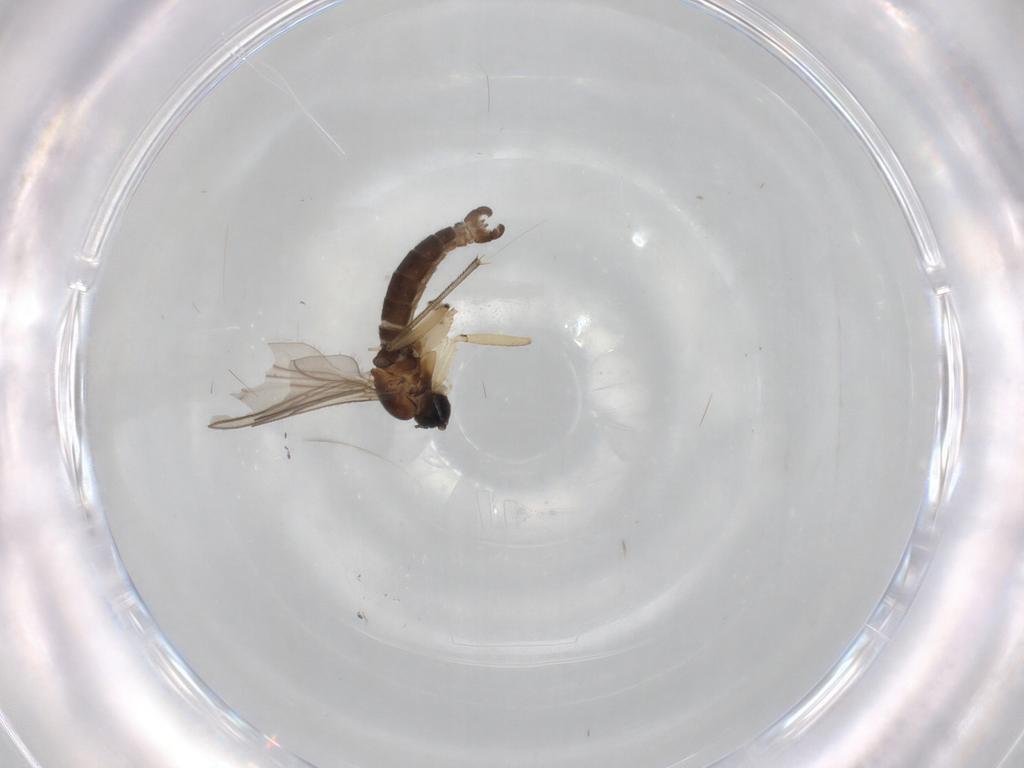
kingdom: Animalia
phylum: Arthropoda
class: Insecta
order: Diptera
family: Chironomidae
